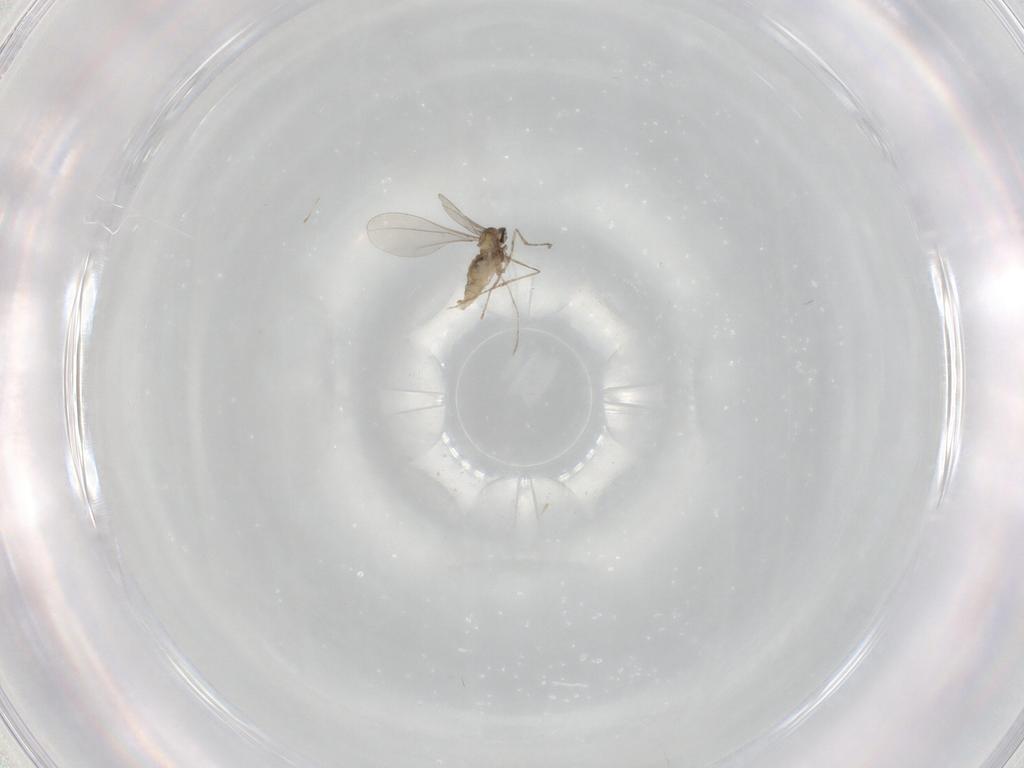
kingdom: Animalia
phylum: Arthropoda
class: Insecta
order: Diptera
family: Cecidomyiidae
